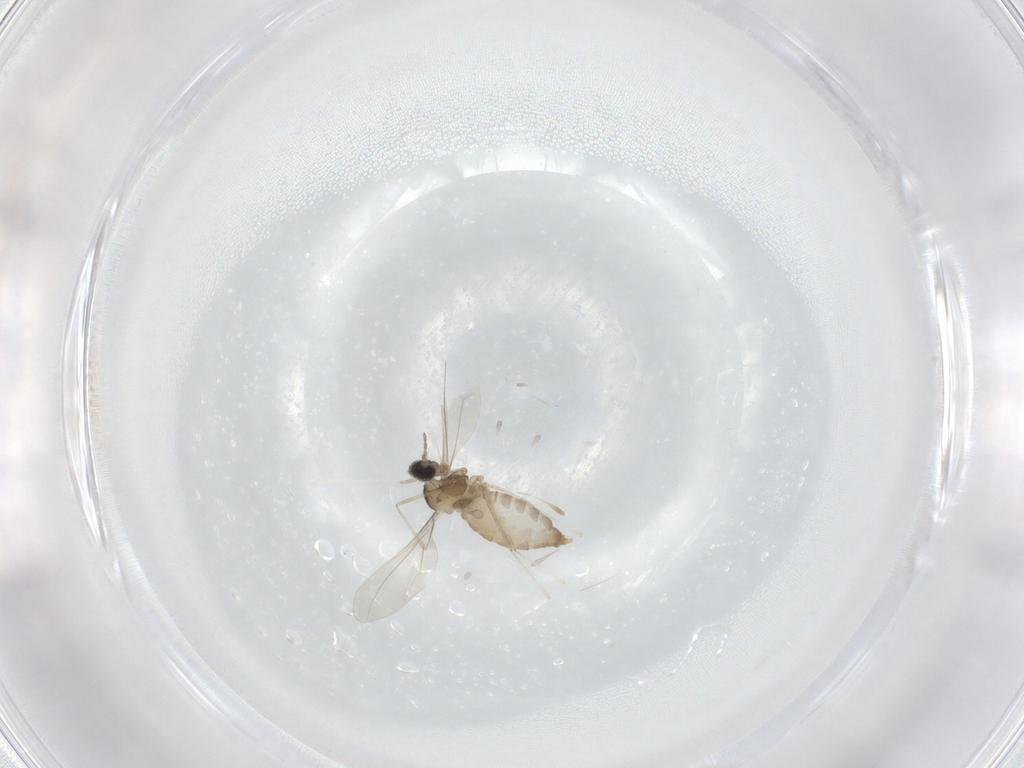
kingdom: Animalia
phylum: Arthropoda
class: Insecta
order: Diptera
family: Cecidomyiidae
